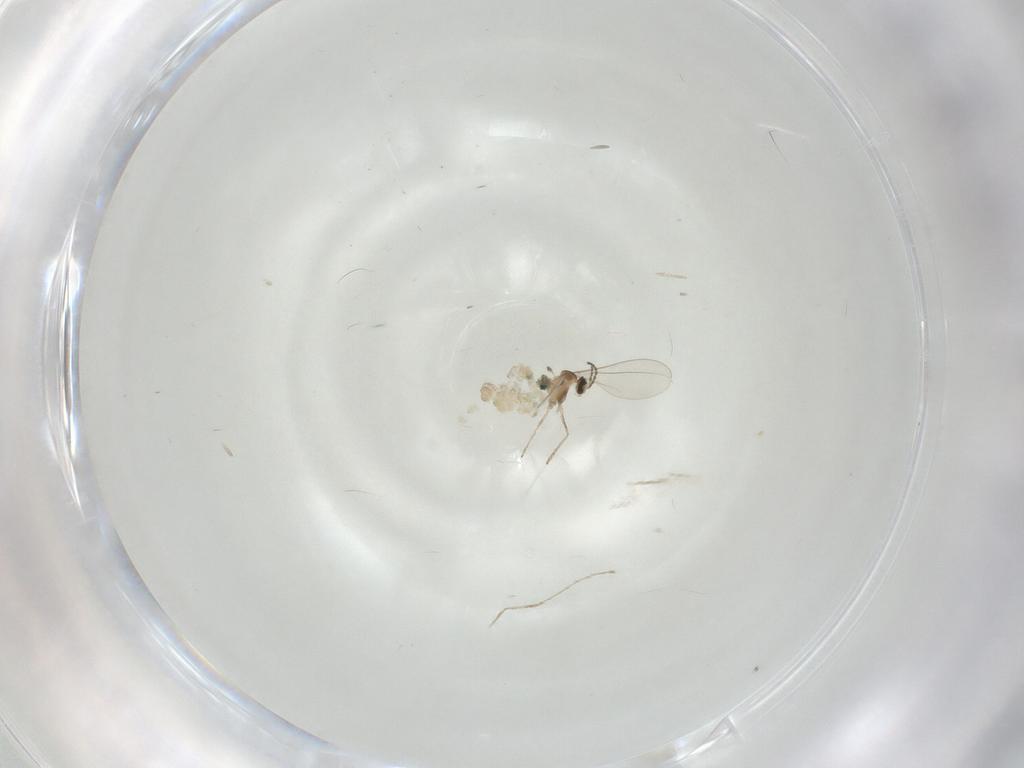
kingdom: Animalia
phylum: Arthropoda
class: Insecta
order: Diptera
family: Cecidomyiidae
